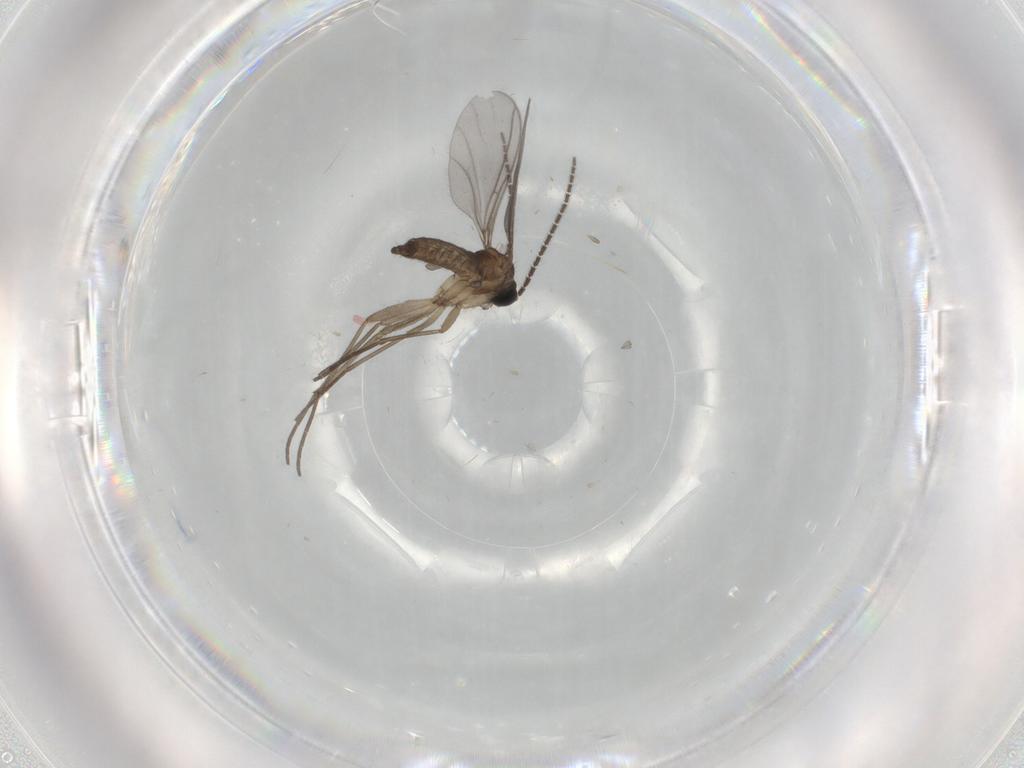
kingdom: Animalia
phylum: Arthropoda
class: Insecta
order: Diptera
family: Sciaridae
